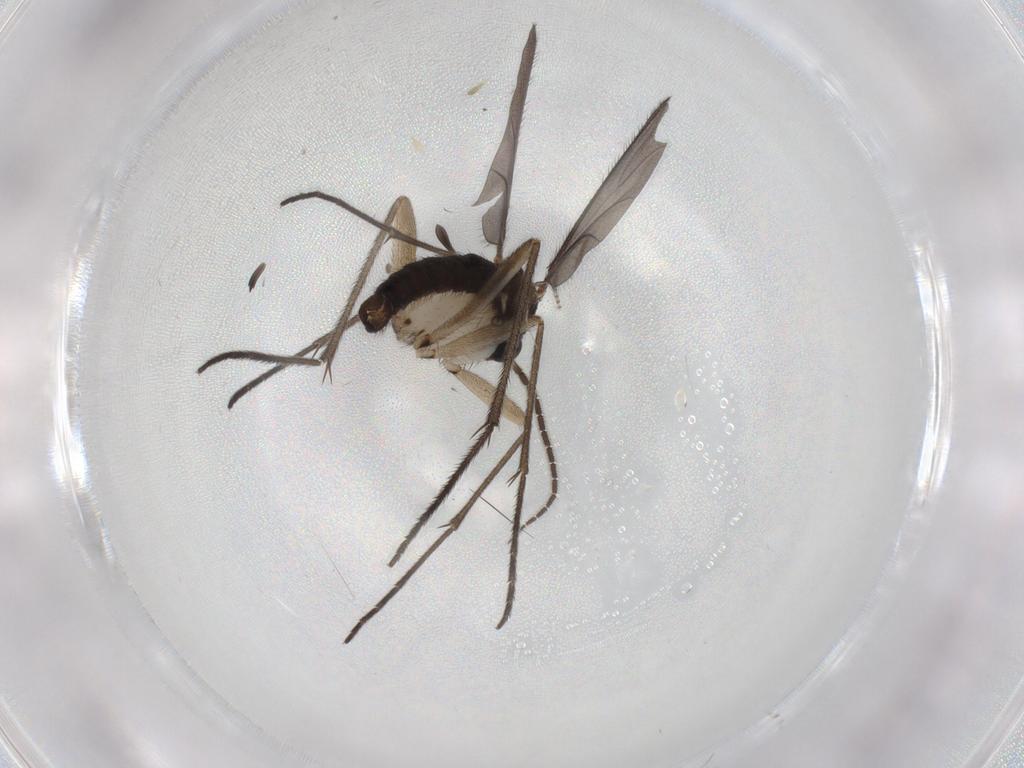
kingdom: Animalia
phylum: Arthropoda
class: Insecta
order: Diptera
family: Sciaridae
